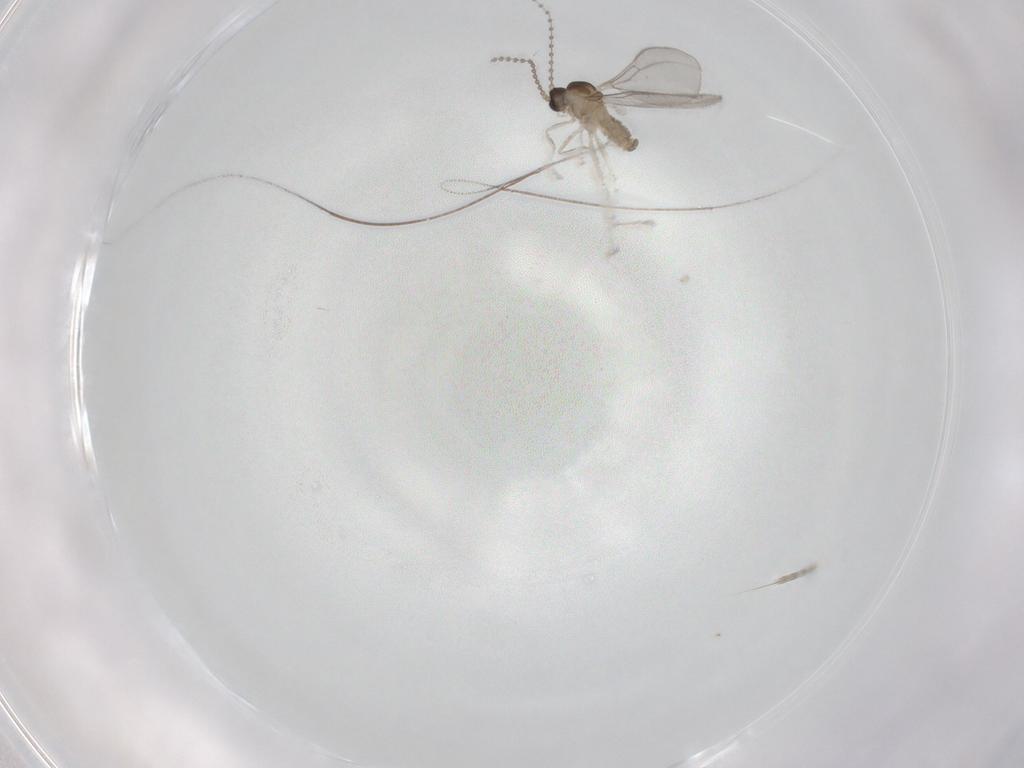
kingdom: Animalia
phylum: Arthropoda
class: Insecta
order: Diptera
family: Cecidomyiidae
